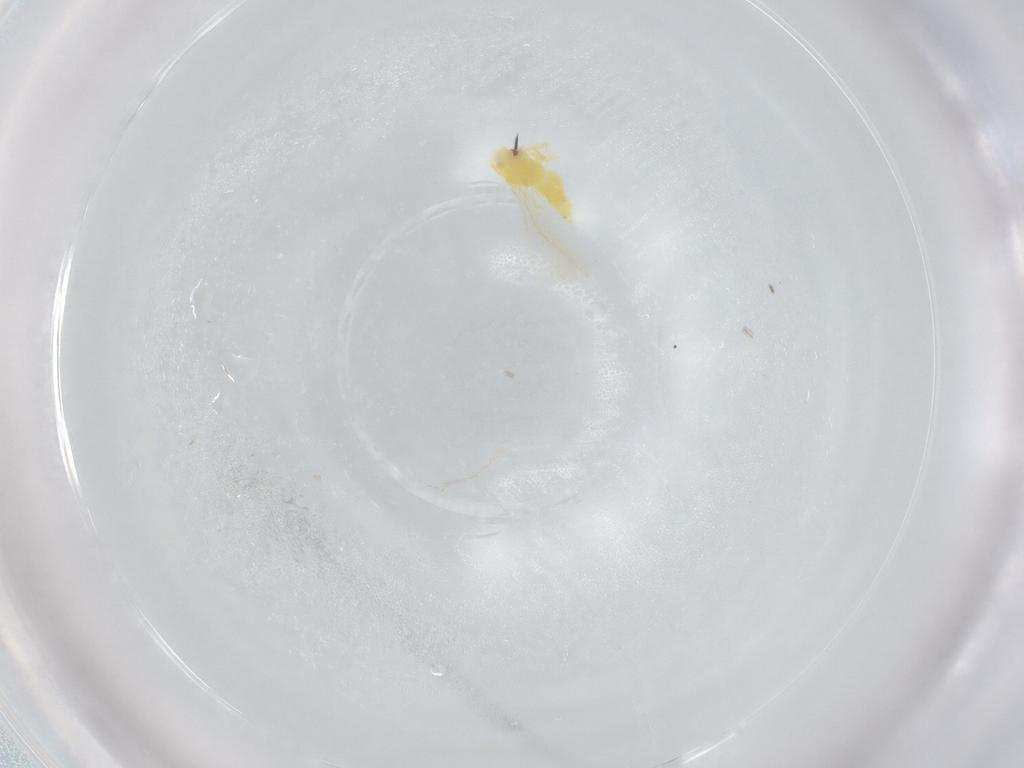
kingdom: Animalia
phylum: Arthropoda
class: Insecta
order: Hemiptera
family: Aleyrodidae
